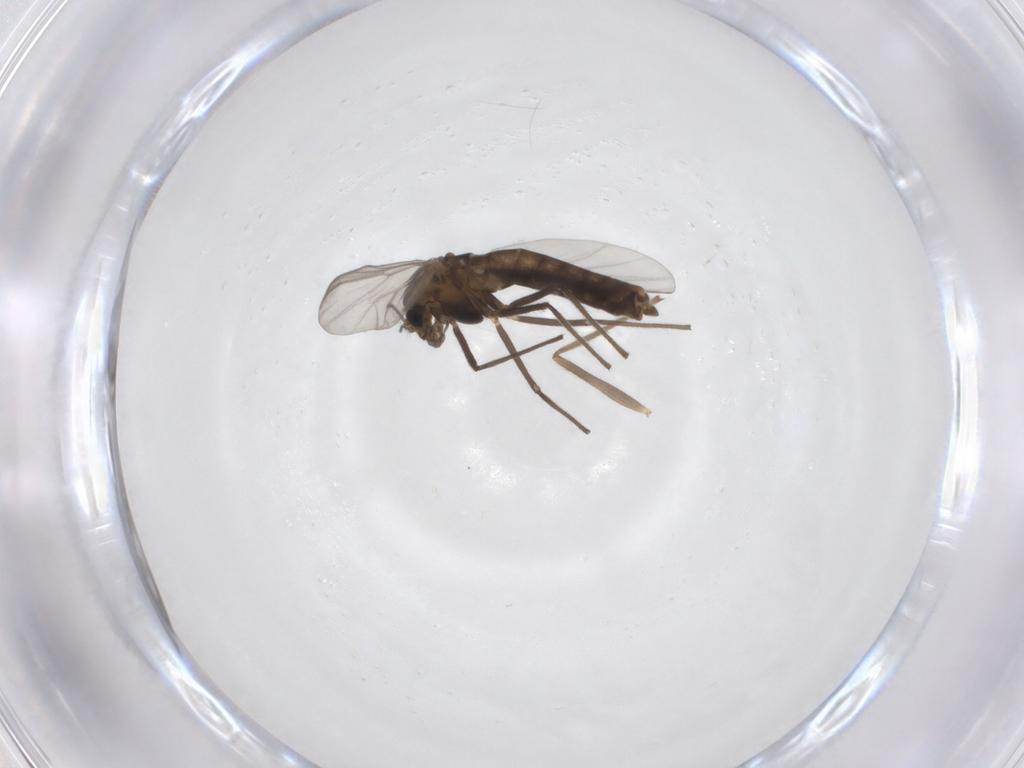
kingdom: Animalia
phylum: Arthropoda
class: Insecta
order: Diptera
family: Chironomidae
